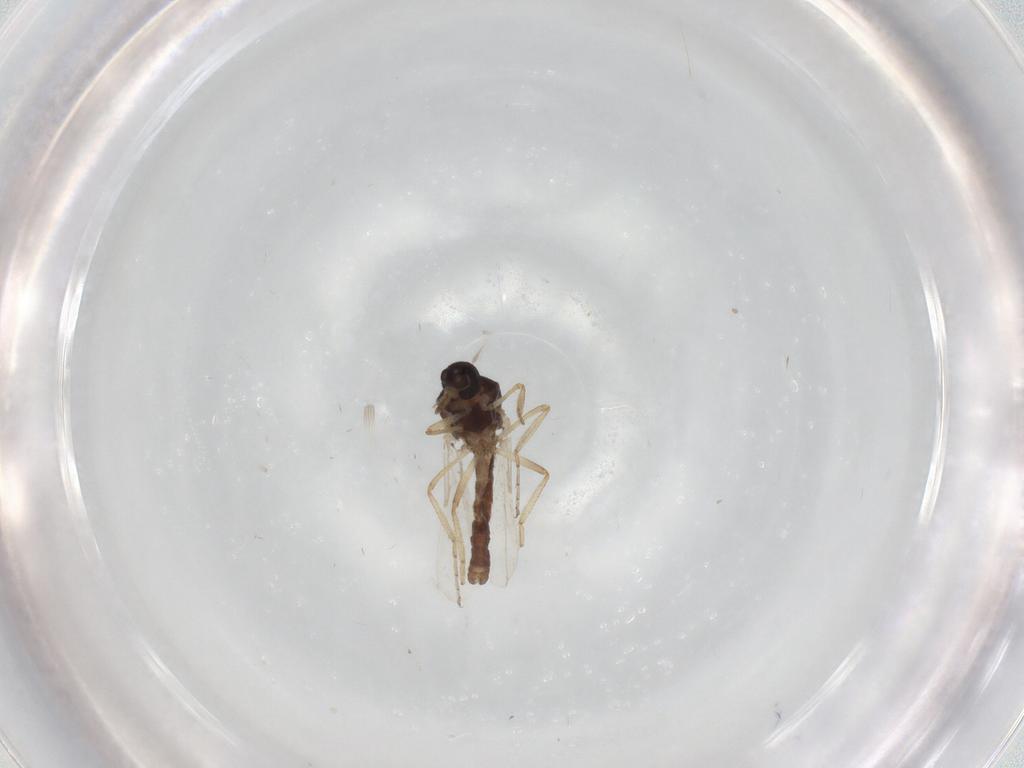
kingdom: Animalia
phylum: Arthropoda
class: Insecta
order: Diptera
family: Ceratopogonidae
